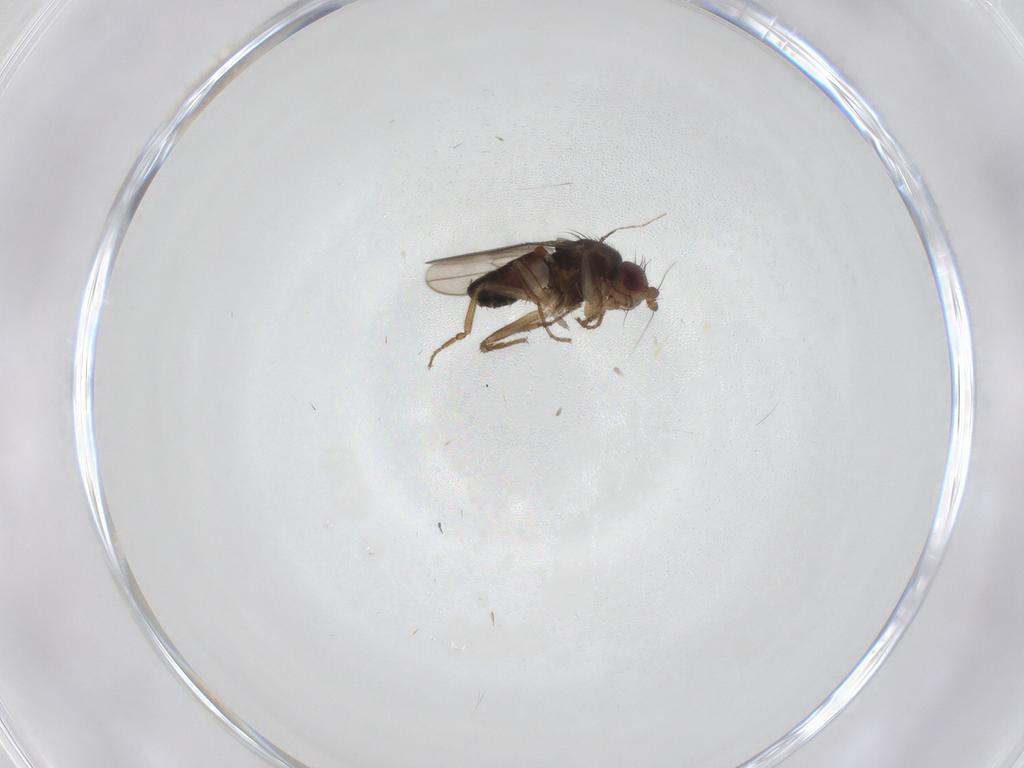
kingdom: Animalia
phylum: Arthropoda
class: Insecta
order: Diptera
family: Sphaeroceridae
